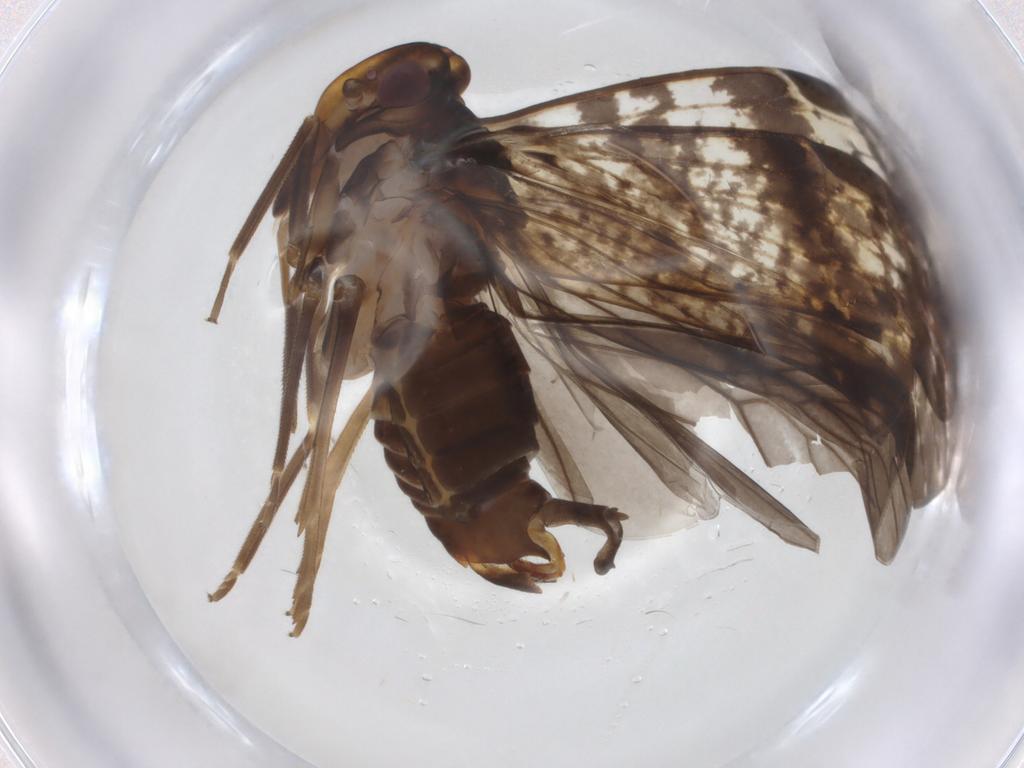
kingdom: Animalia
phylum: Arthropoda
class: Insecta
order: Hemiptera
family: Cixiidae
